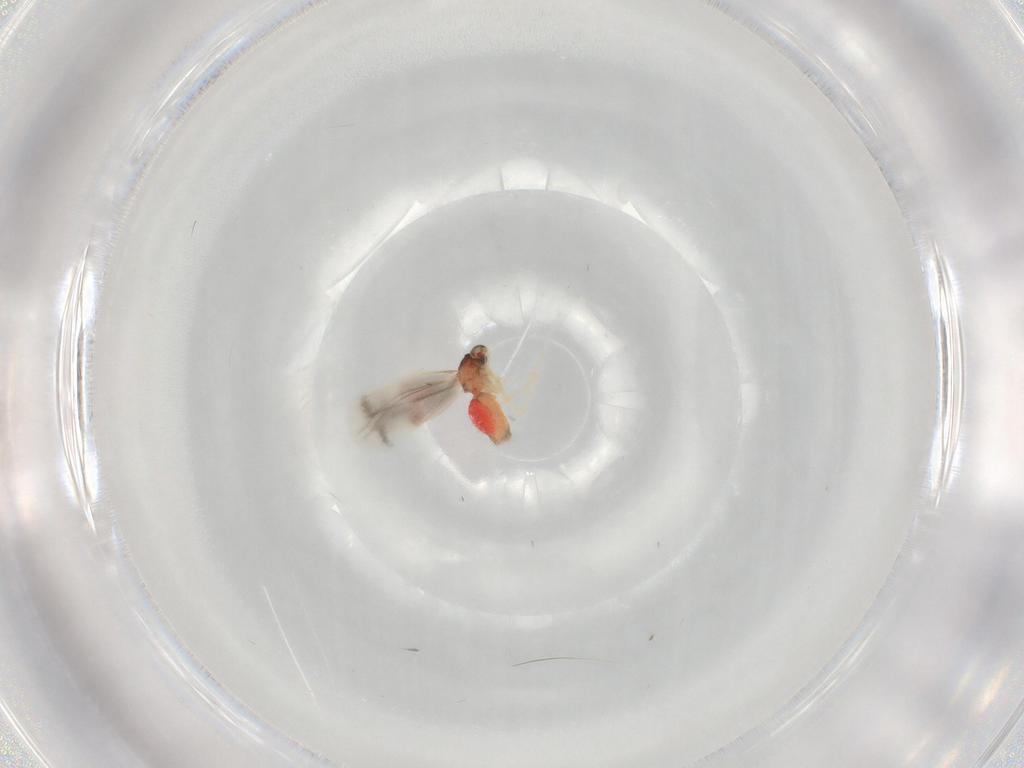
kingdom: Animalia
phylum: Arthropoda
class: Insecta
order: Hemiptera
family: Aleyrodidae
